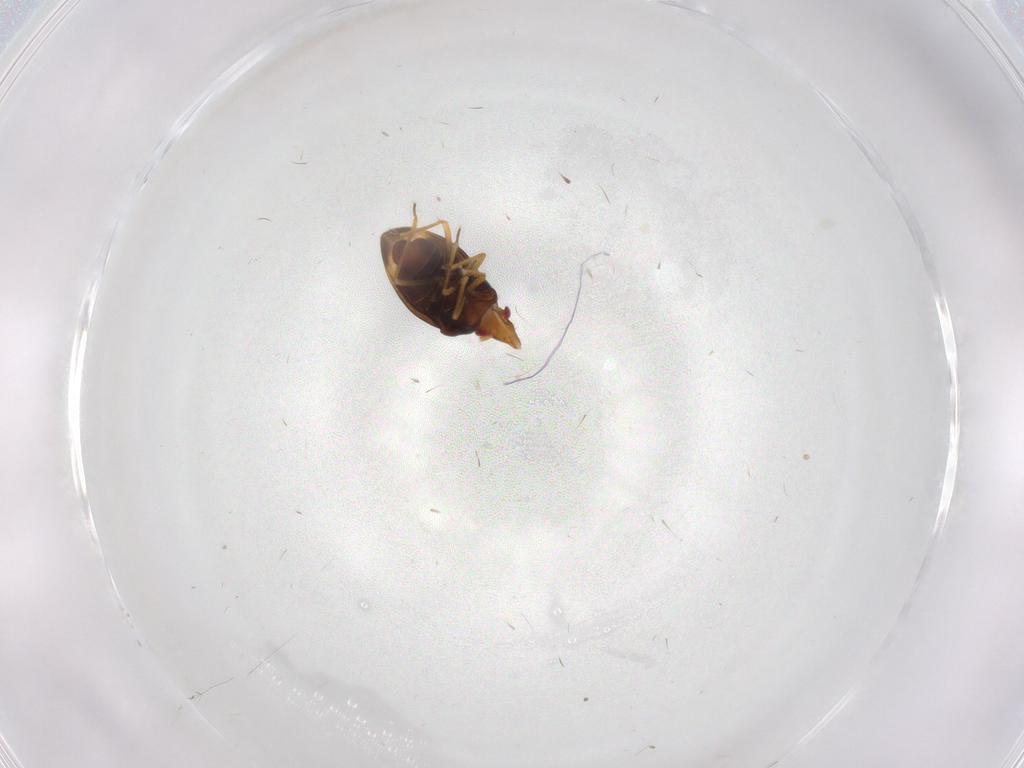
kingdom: Animalia
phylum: Arthropoda
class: Insecta
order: Hemiptera
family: Schizopteridae
